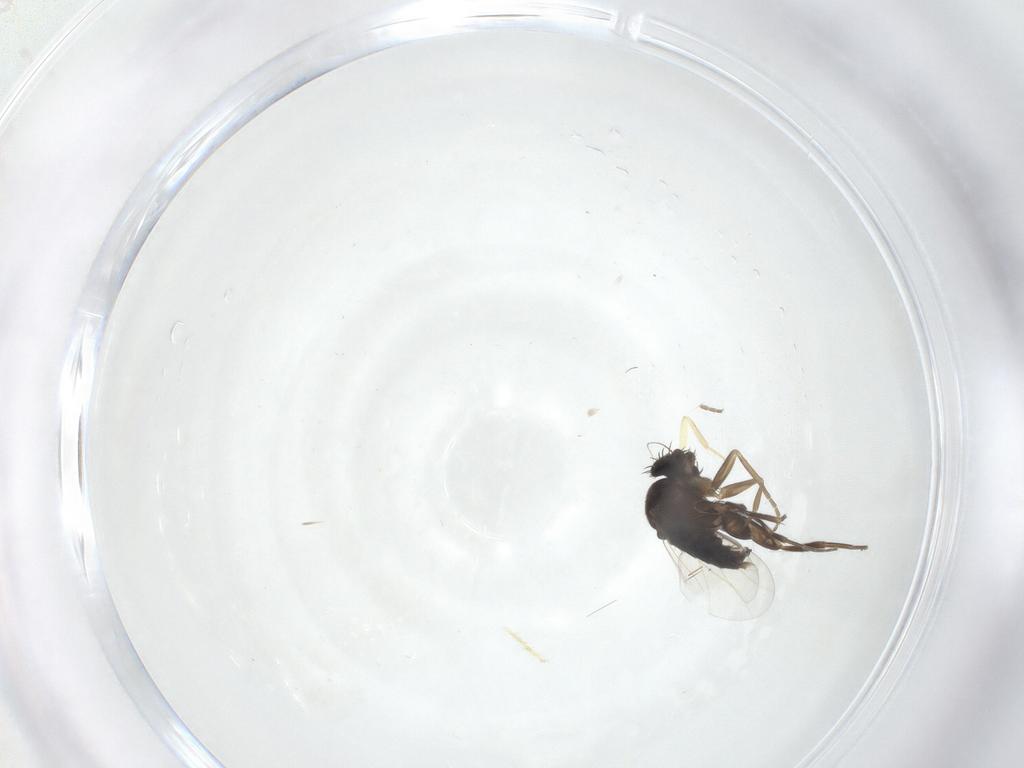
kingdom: Animalia
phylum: Arthropoda
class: Insecta
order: Diptera
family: Phoridae
